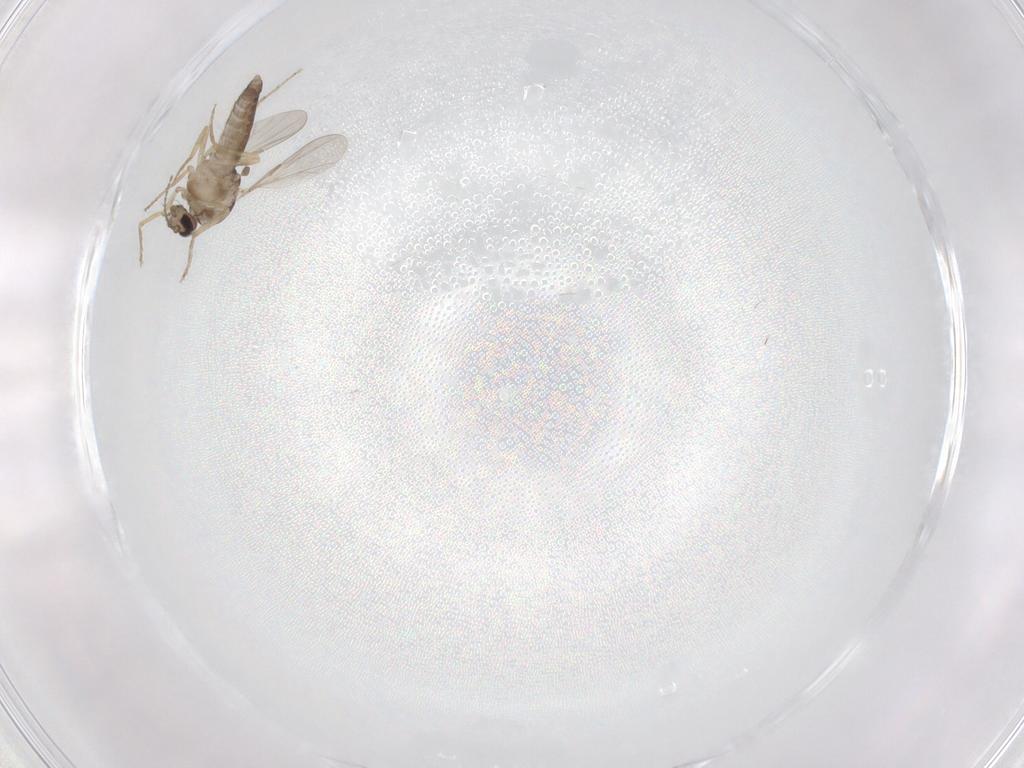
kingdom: Animalia
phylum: Arthropoda
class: Insecta
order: Diptera
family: Ceratopogonidae
